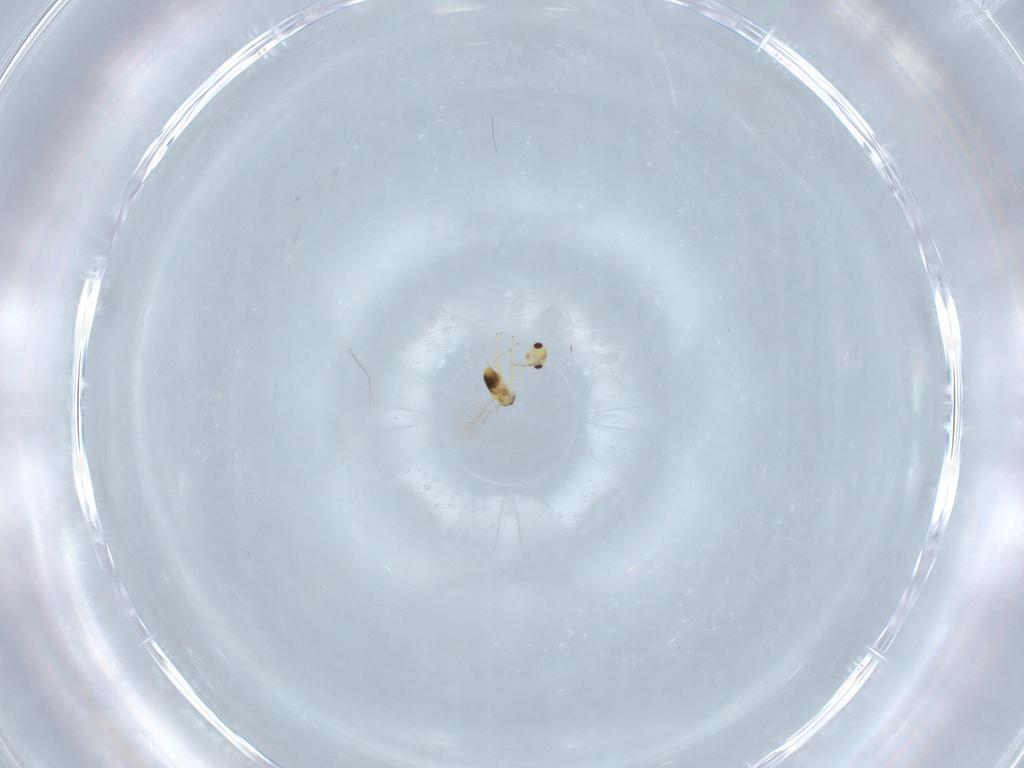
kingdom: Animalia
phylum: Arthropoda
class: Insecta
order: Hymenoptera
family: Aphelinidae
